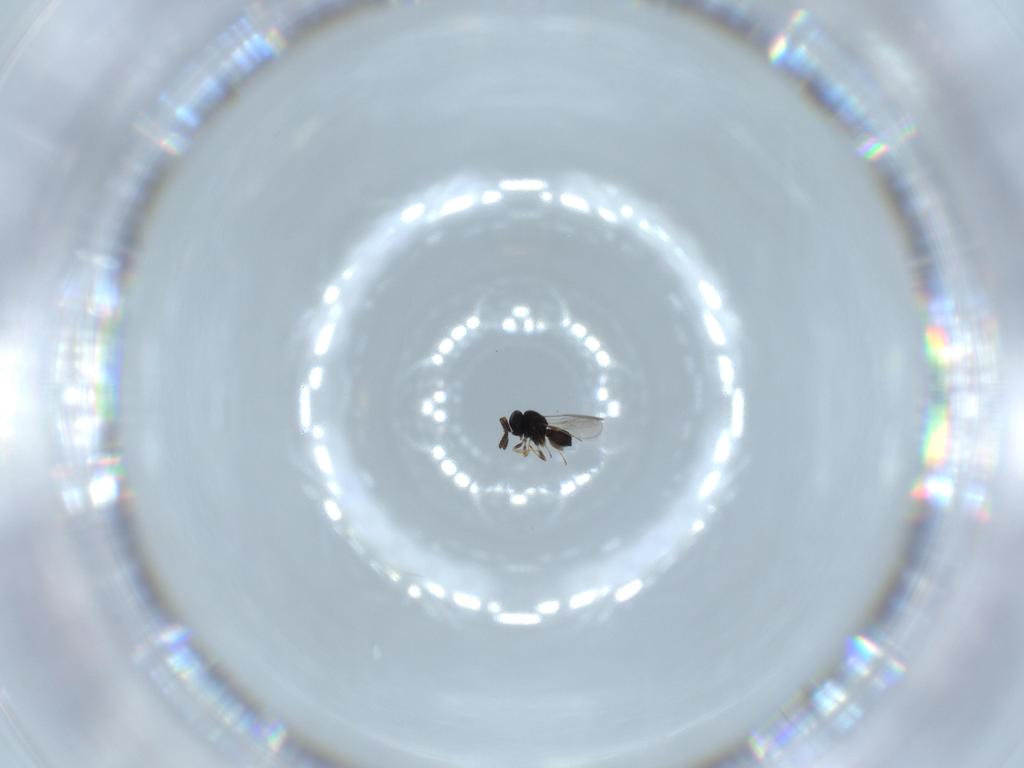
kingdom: Animalia
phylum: Arthropoda
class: Insecta
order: Hymenoptera
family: Scelionidae
